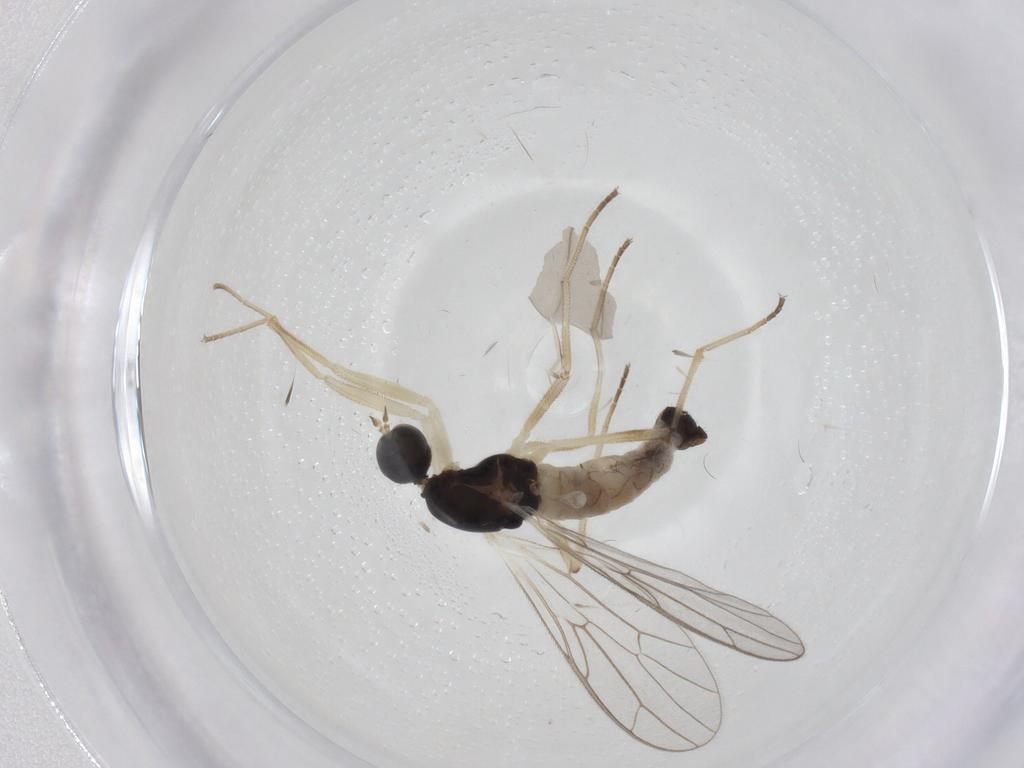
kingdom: Animalia
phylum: Arthropoda
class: Insecta
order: Diptera
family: Empididae
